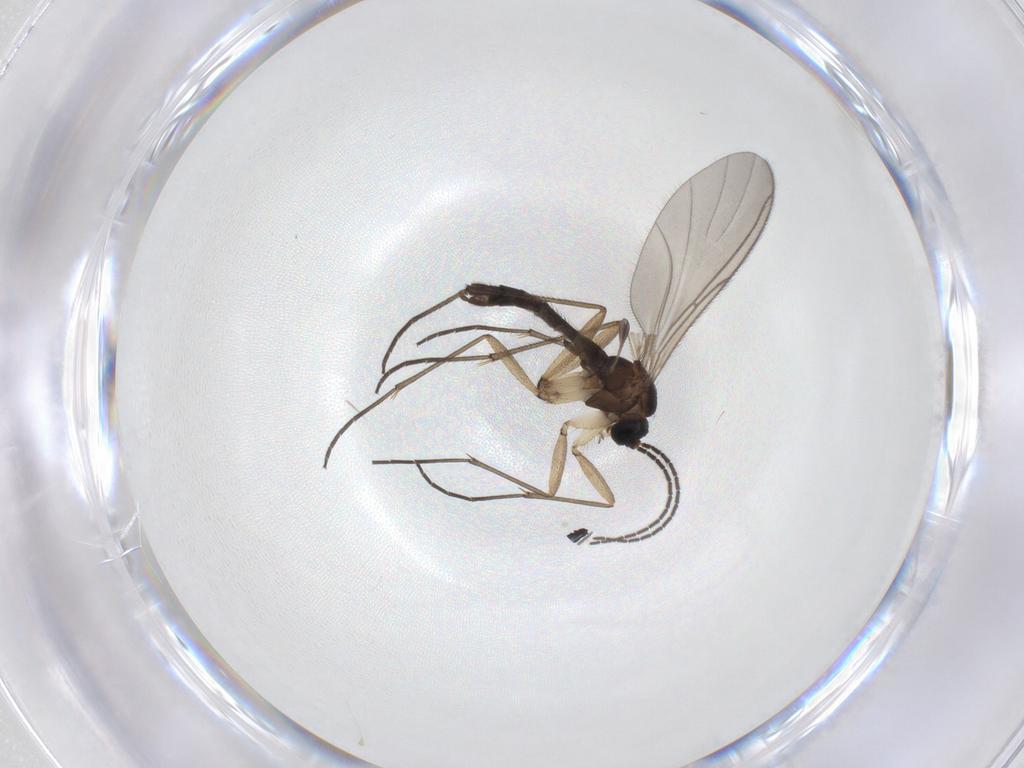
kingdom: Animalia
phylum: Arthropoda
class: Insecta
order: Diptera
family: Sciaridae
